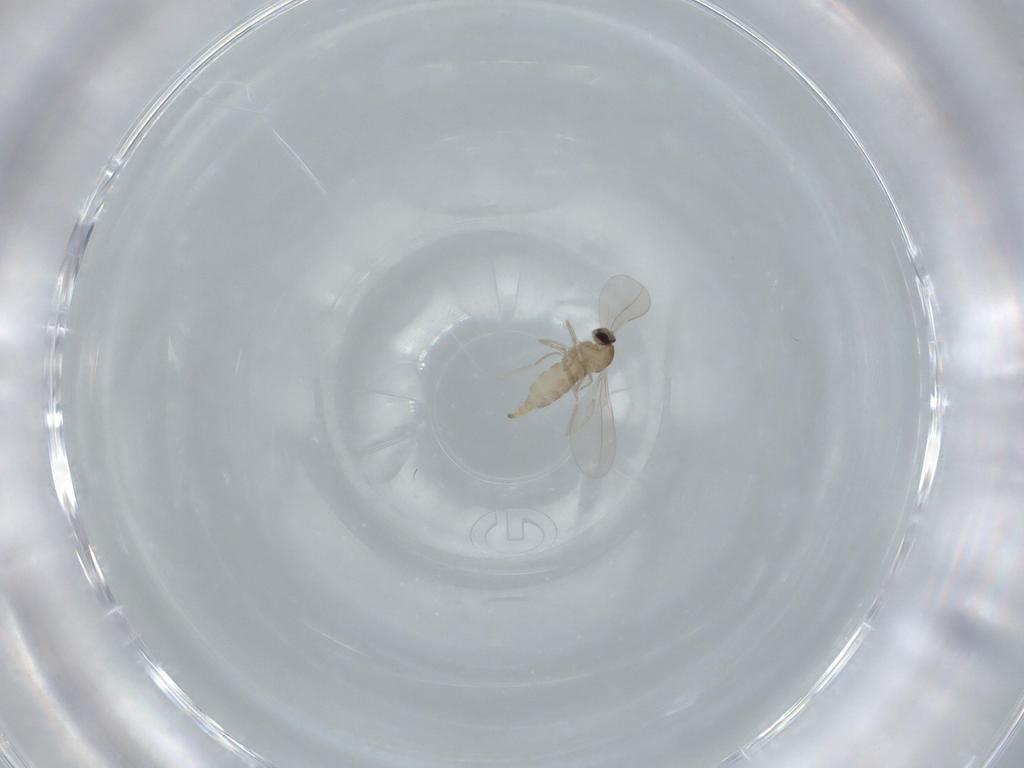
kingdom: Animalia
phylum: Arthropoda
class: Insecta
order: Diptera
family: Cecidomyiidae
